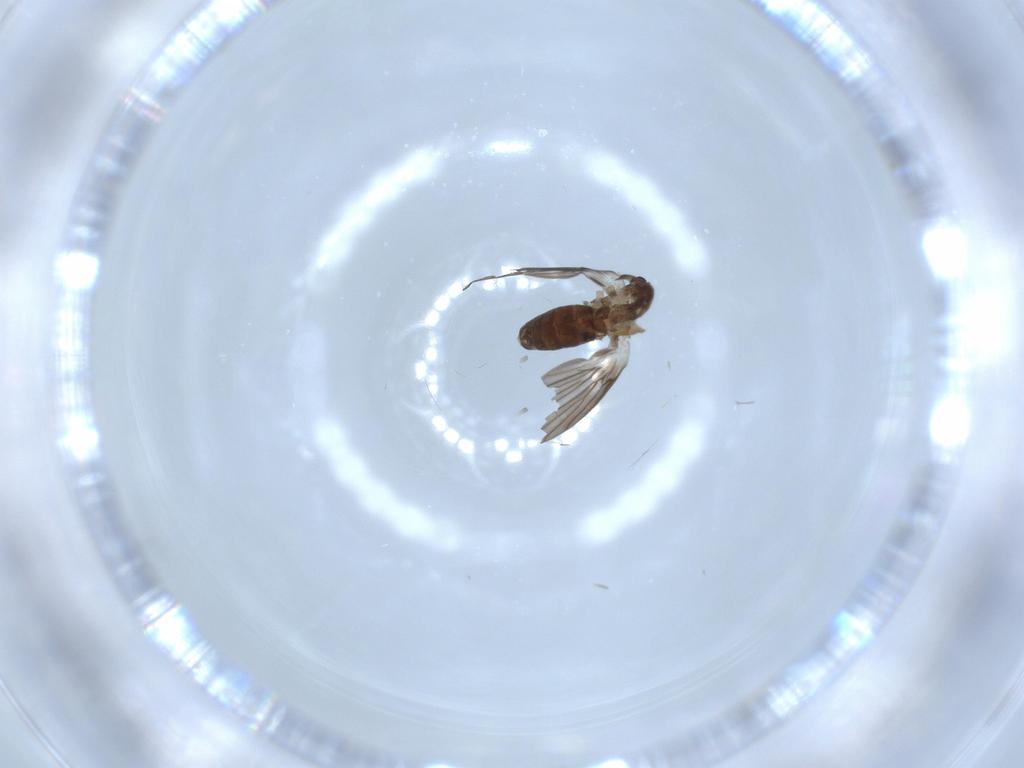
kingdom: Animalia
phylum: Arthropoda
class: Insecta
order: Diptera
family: Psychodidae
